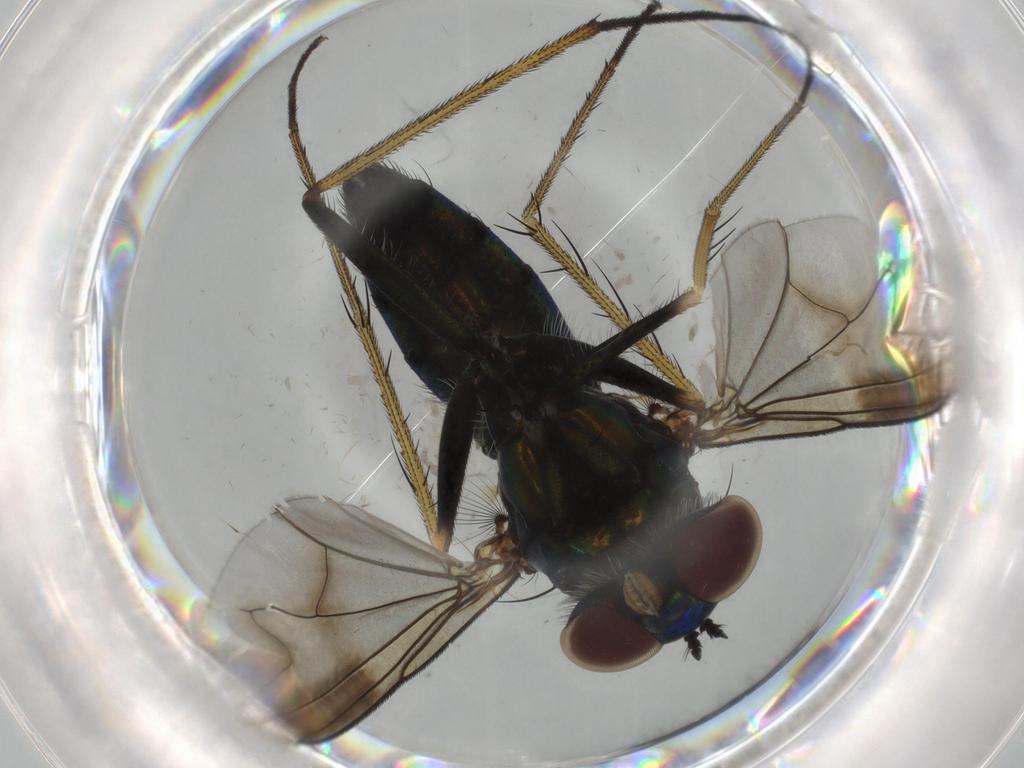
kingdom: Animalia
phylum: Arthropoda
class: Insecta
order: Diptera
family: Dolichopodidae
